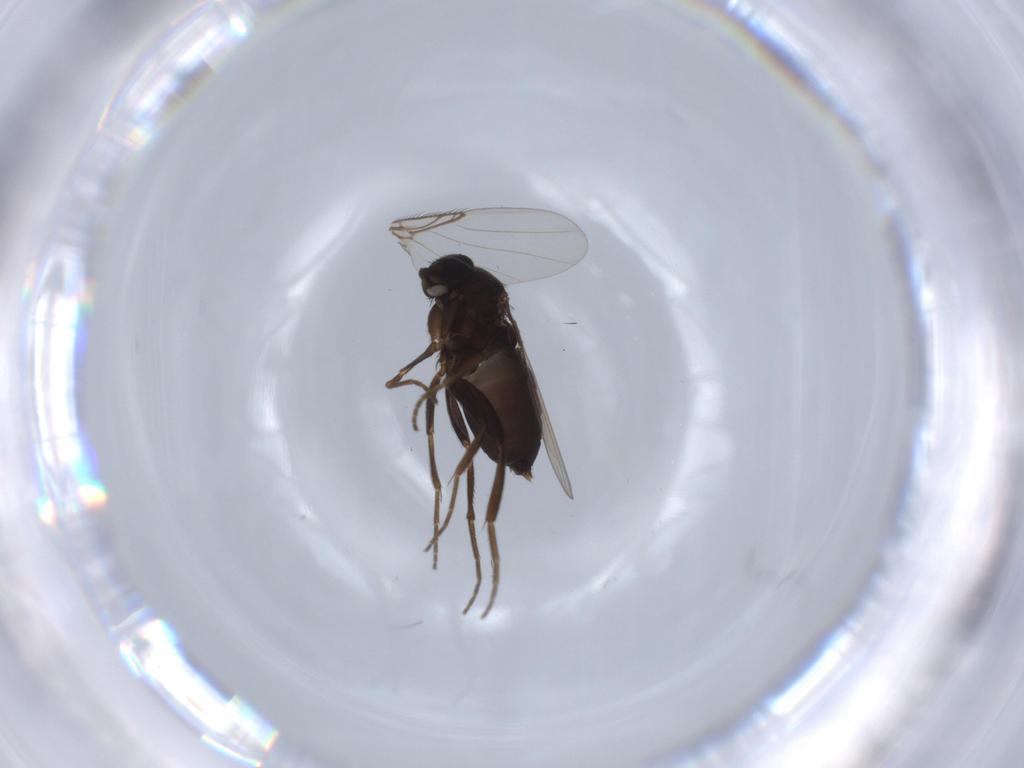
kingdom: Animalia
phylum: Arthropoda
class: Insecta
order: Diptera
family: Phoridae
